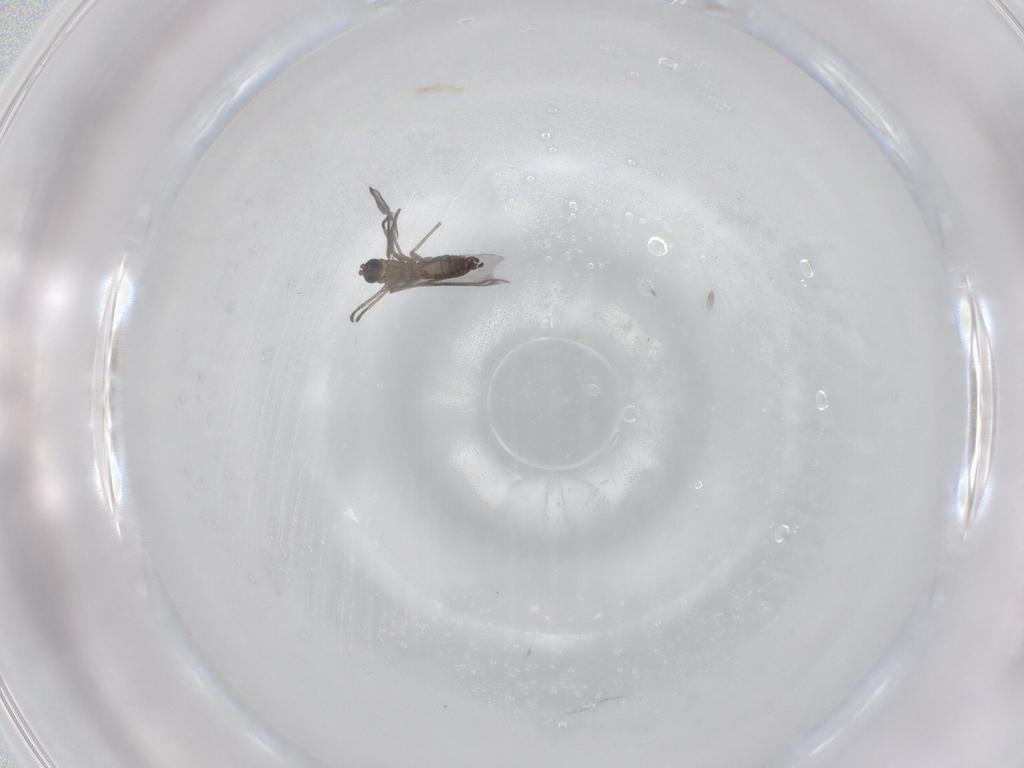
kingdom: Animalia
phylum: Arthropoda
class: Insecta
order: Diptera
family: Sciaridae
